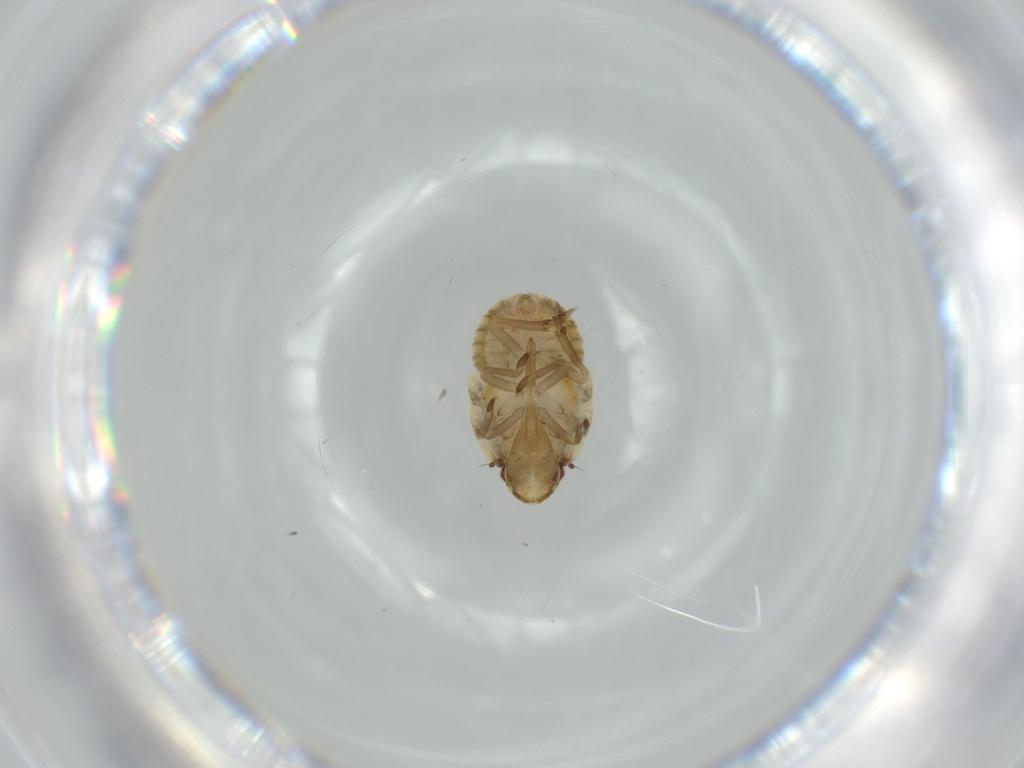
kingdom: Animalia
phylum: Arthropoda
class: Insecta
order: Hemiptera
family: Flatidae
